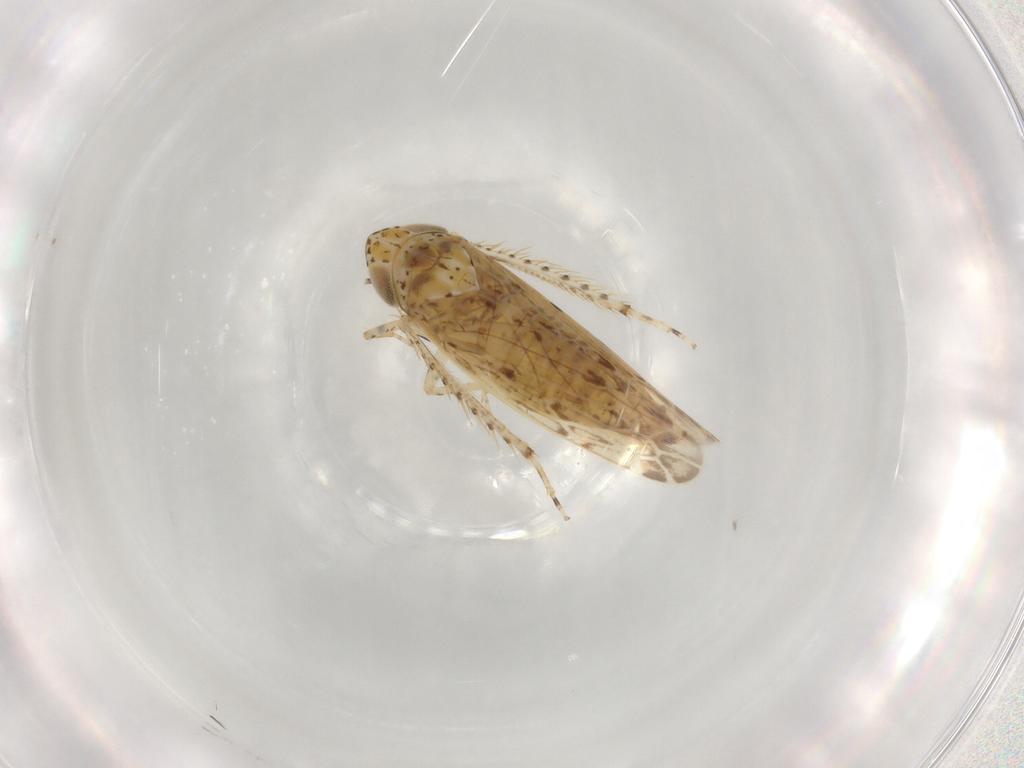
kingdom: Animalia
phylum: Arthropoda
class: Insecta
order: Hemiptera
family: Cicadellidae
